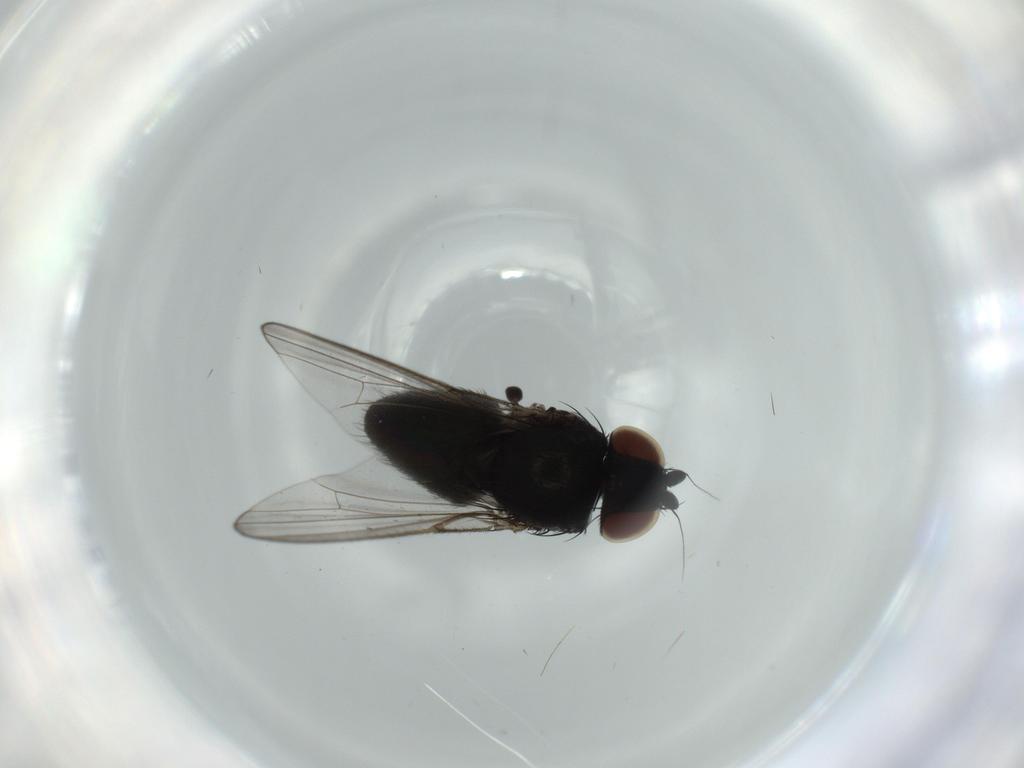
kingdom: Animalia
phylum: Arthropoda
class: Insecta
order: Diptera
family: Milichiidae
